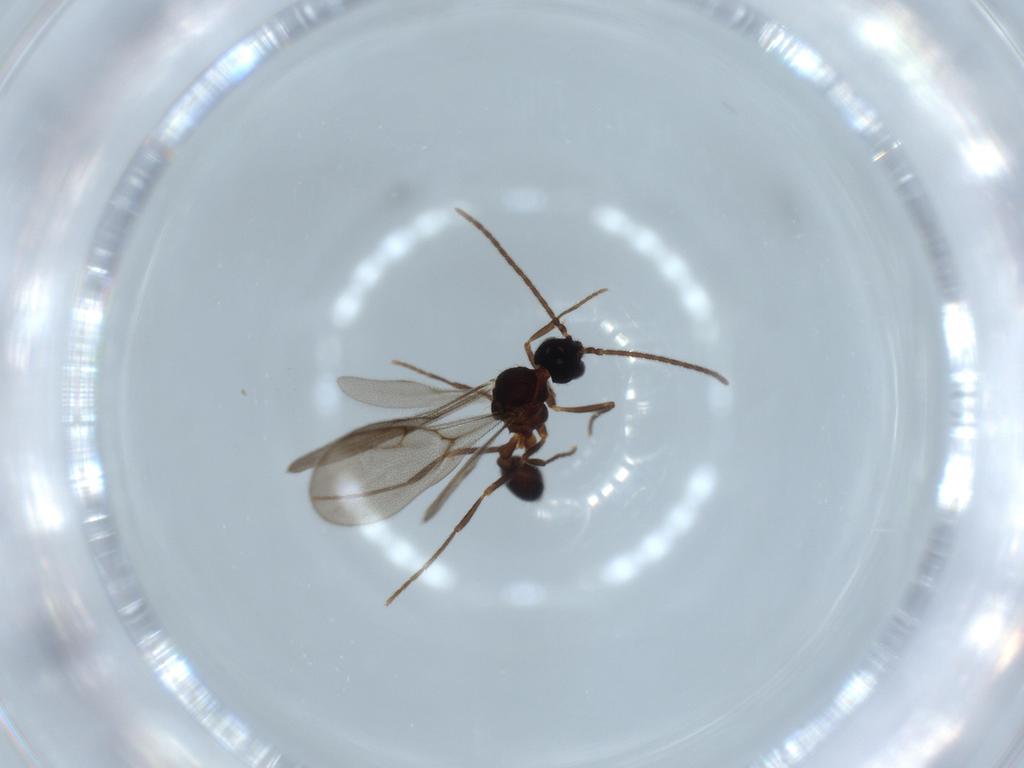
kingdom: Animalia
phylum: Arthropoda
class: Insecta
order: Hymenoptera
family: Formicidae
